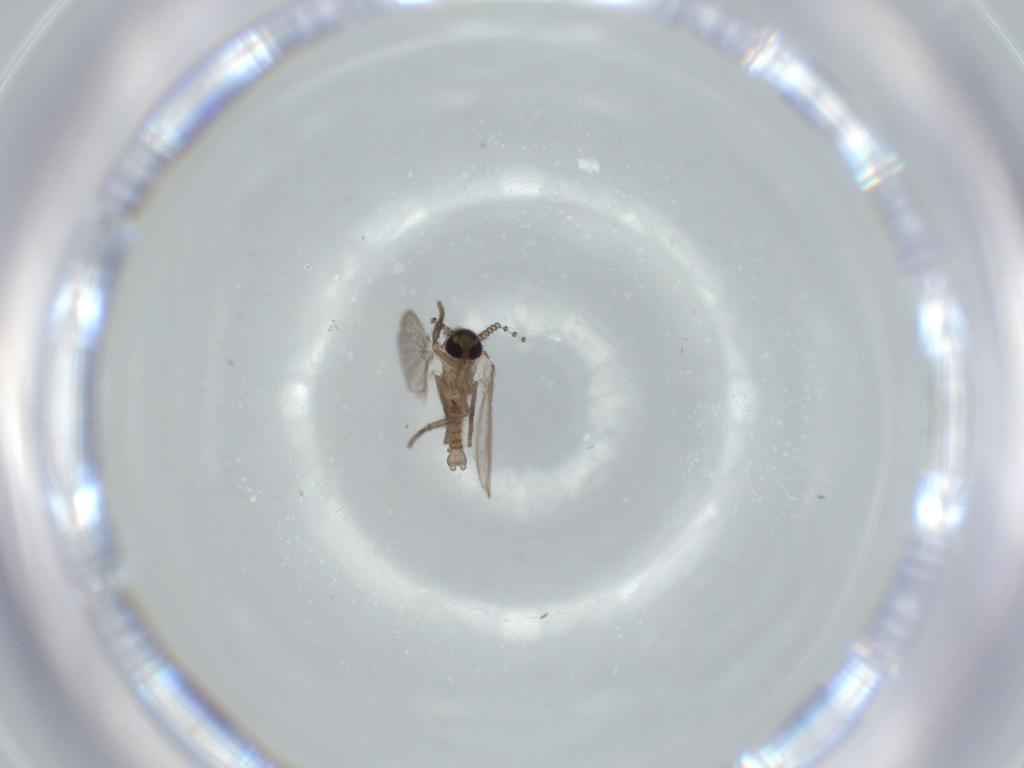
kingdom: Animalia
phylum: Arthropoda
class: Insecta
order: Diptera
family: Psychodidae
